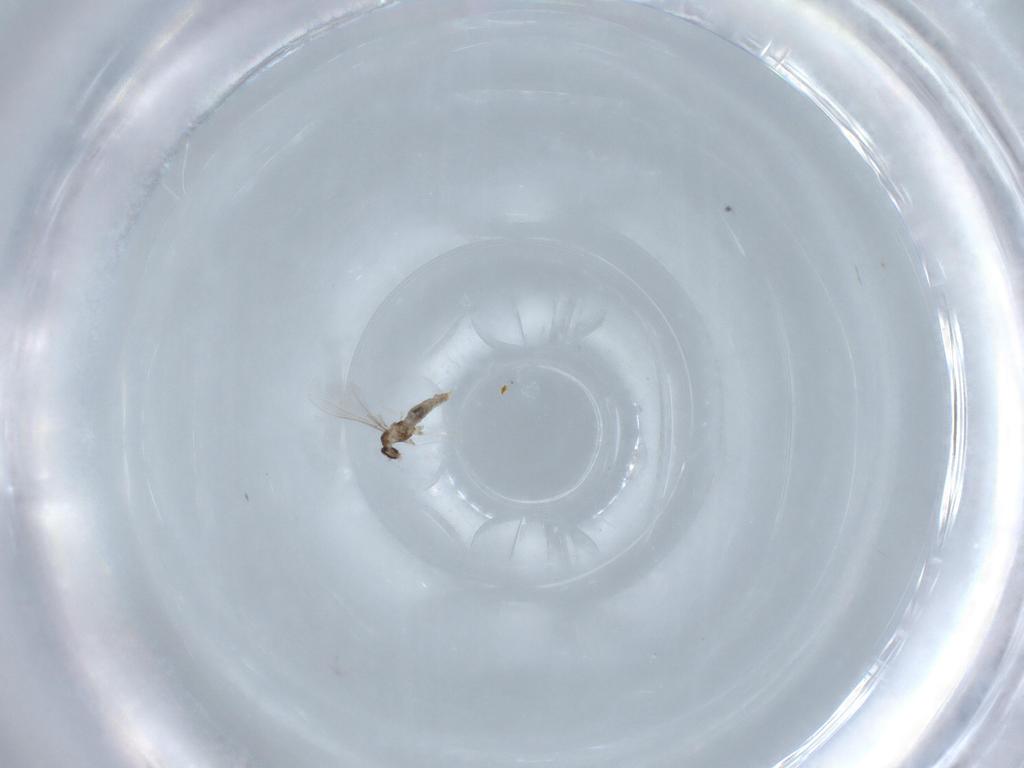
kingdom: Animalia
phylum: Arthropoda
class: Insecta
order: Diptera
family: Cecidomyiidae
